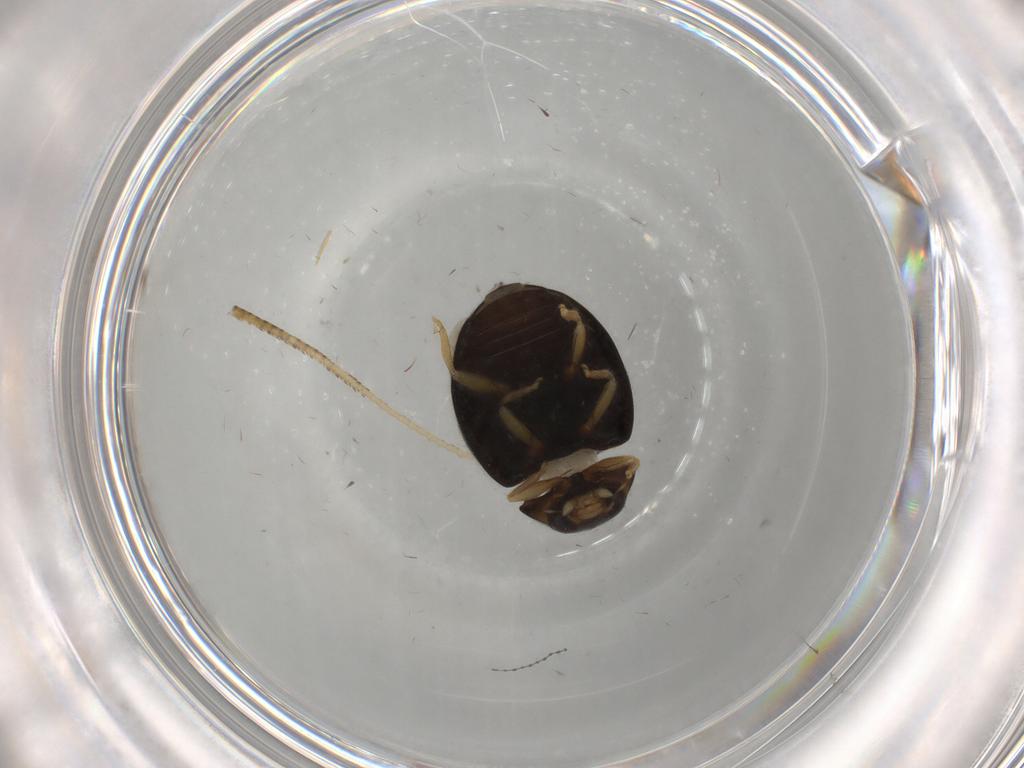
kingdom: Animalia
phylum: Arthropoda
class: Insecta
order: Coleoptera
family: Coccinellidae
